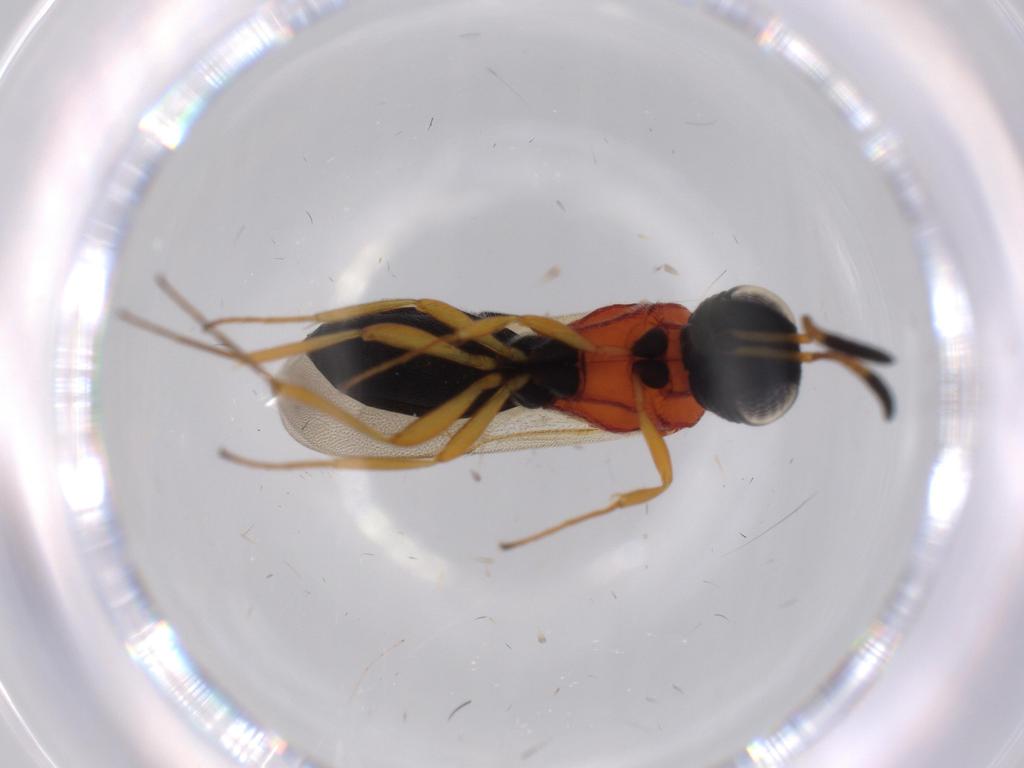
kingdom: Animalia
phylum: Arthropoda
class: Insecta
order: Hymenoptera
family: Scelionidae
